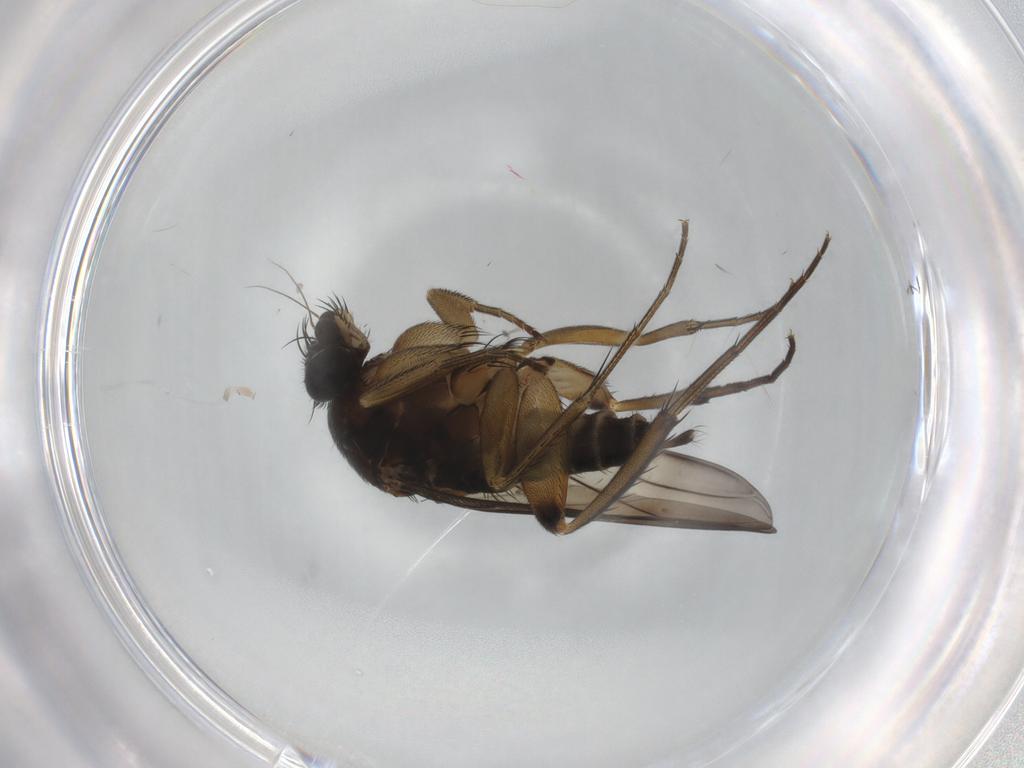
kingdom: Animalia
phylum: Arthropoda
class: Insecta
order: Diptera
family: Phoridae
